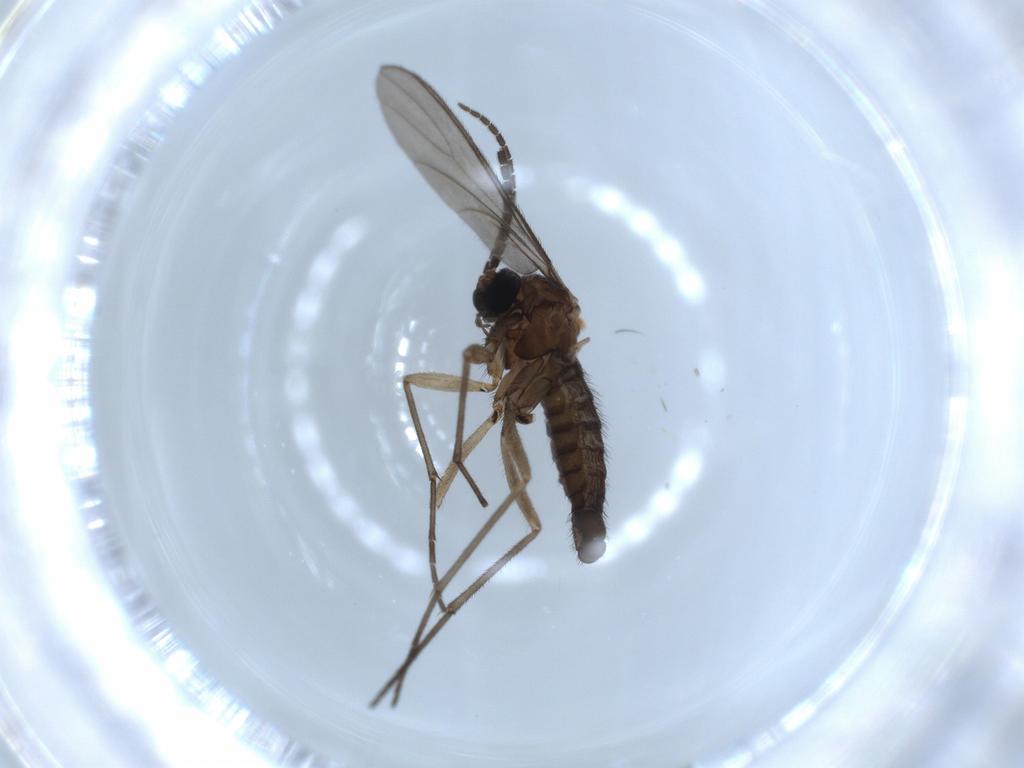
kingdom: Animalia
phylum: Arthropoda
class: Insecta
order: Diptera
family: Sciaridae
